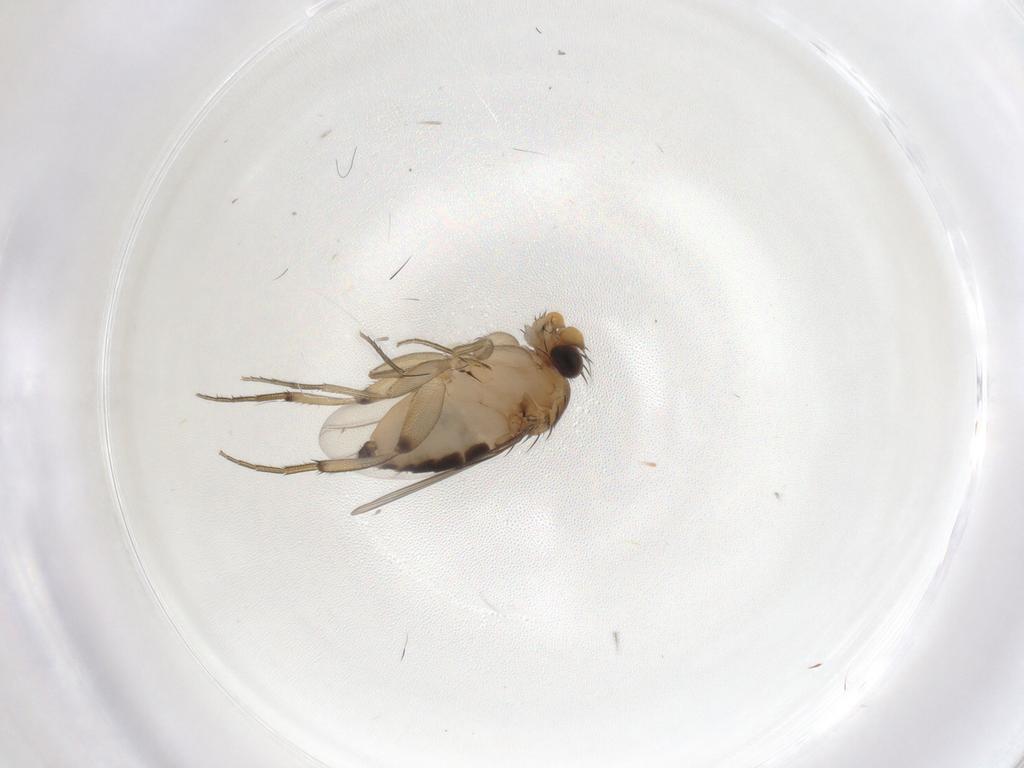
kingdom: Animalia
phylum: Arthropoda
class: Insecta
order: Diptera
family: Phoridae
